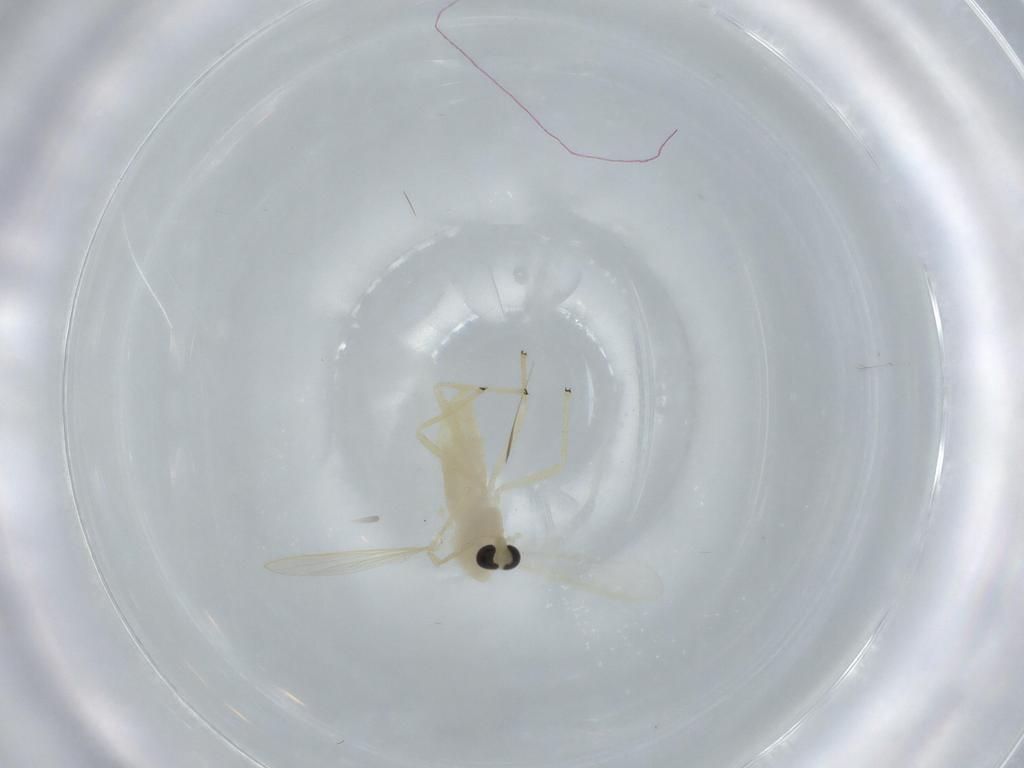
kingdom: Animalia
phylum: Arthropoda
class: Insecta
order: Diptera
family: Chironomidae
